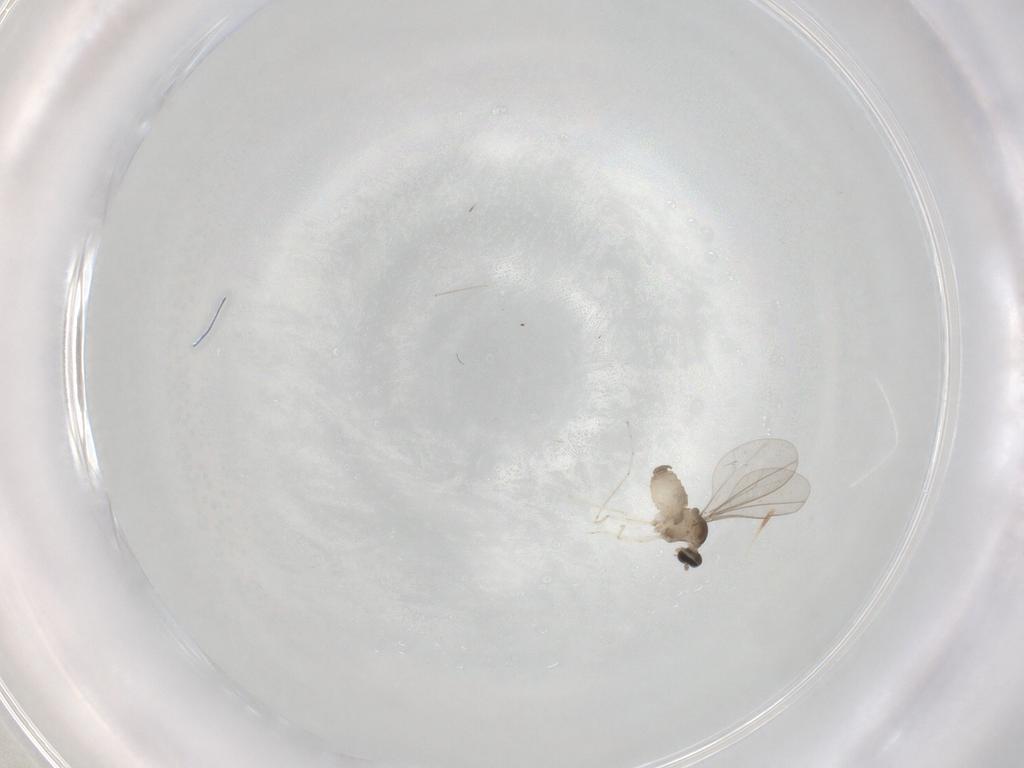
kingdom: Animalia
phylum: Arthropoda
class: Insecta
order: Diptera
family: Cecidomyiidae
